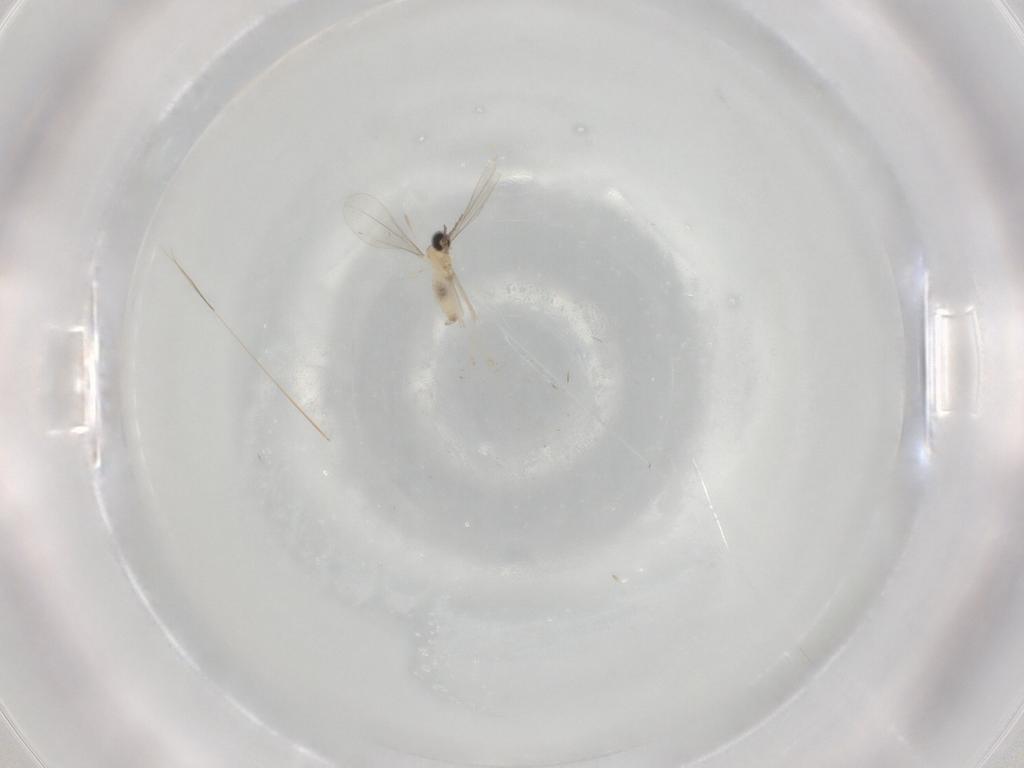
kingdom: Animalia
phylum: Arthropoda
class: Insecta
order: Diptera
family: Cecidomyiidae
